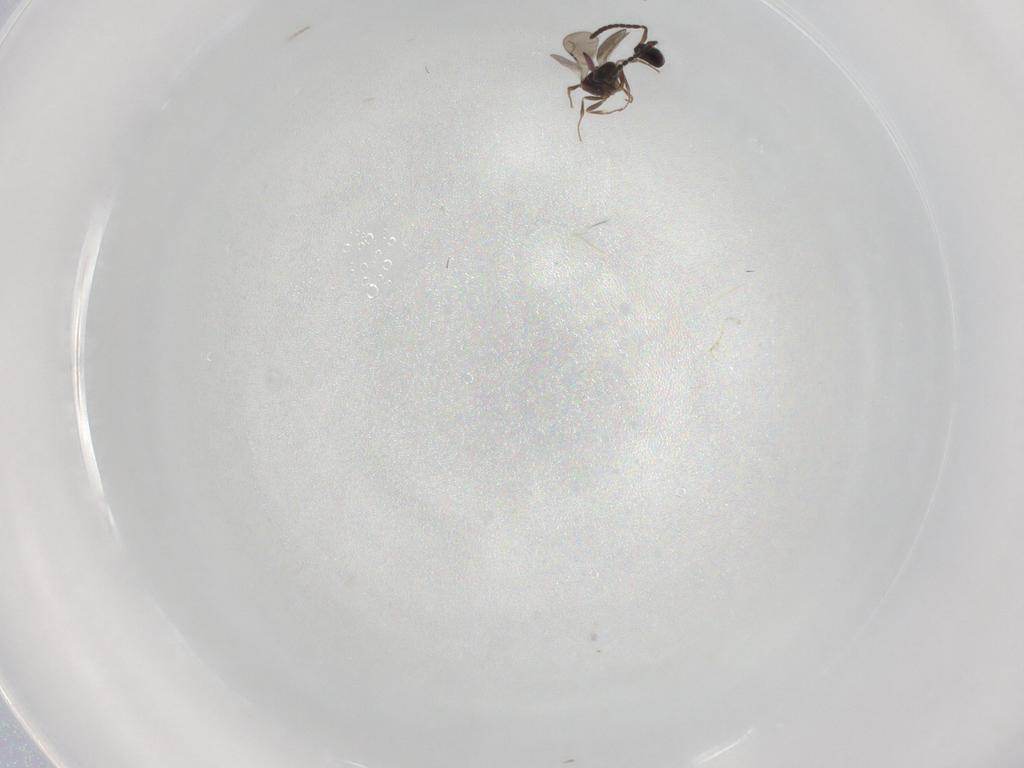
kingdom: Animalia
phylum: Arthropoda
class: Insecta
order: Hymenoptera
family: Ceraphronidae
